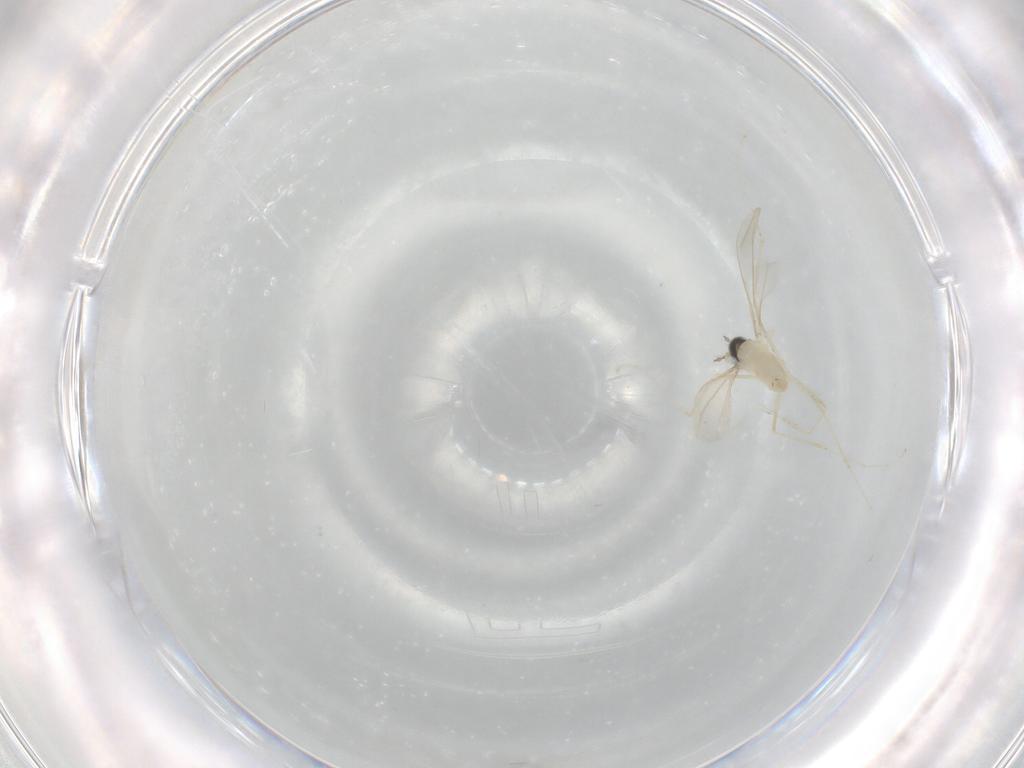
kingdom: Animalia
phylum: Arthropoda
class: Insecta
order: Diptera
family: Cecidomyiidae
